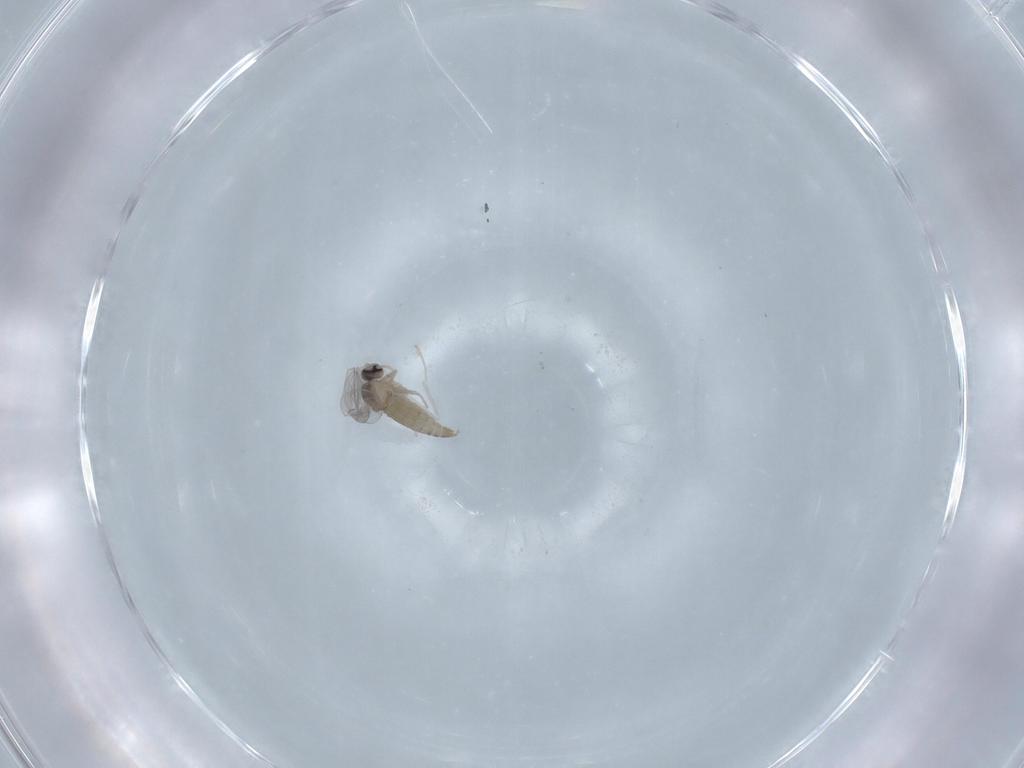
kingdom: Animalia
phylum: Arthropoda
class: Insecta
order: Diptera
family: Cecidomyiidae
